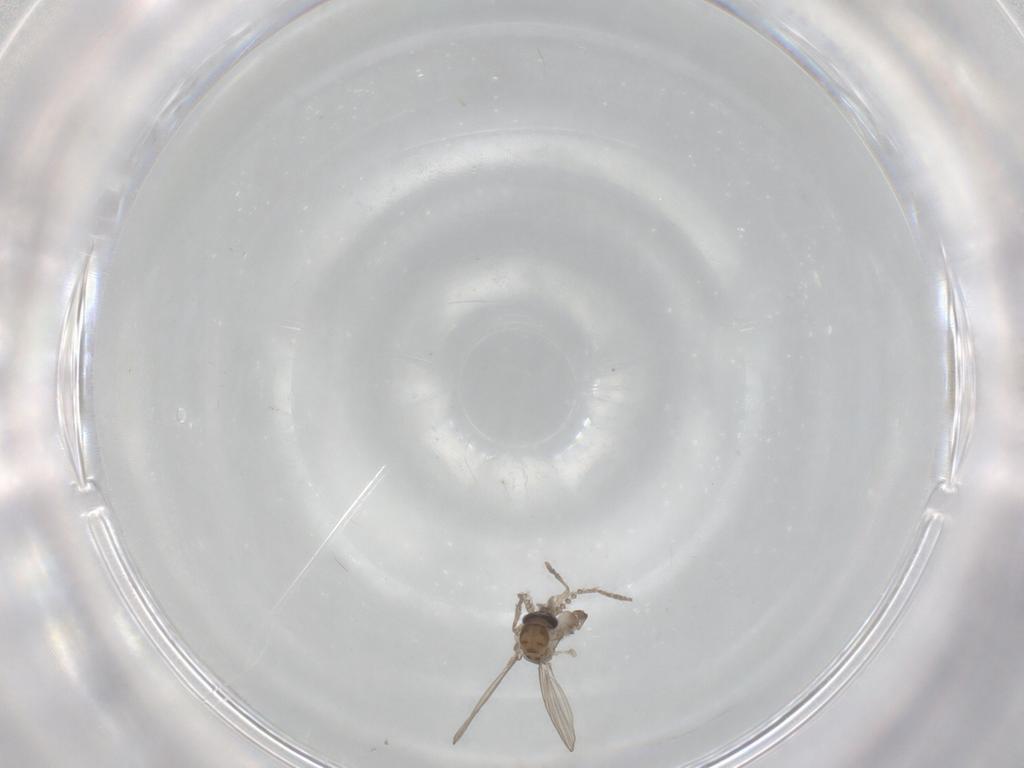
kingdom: Animalia
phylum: Arthropoda
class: Insecta
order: Diptera
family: Psychodidae
